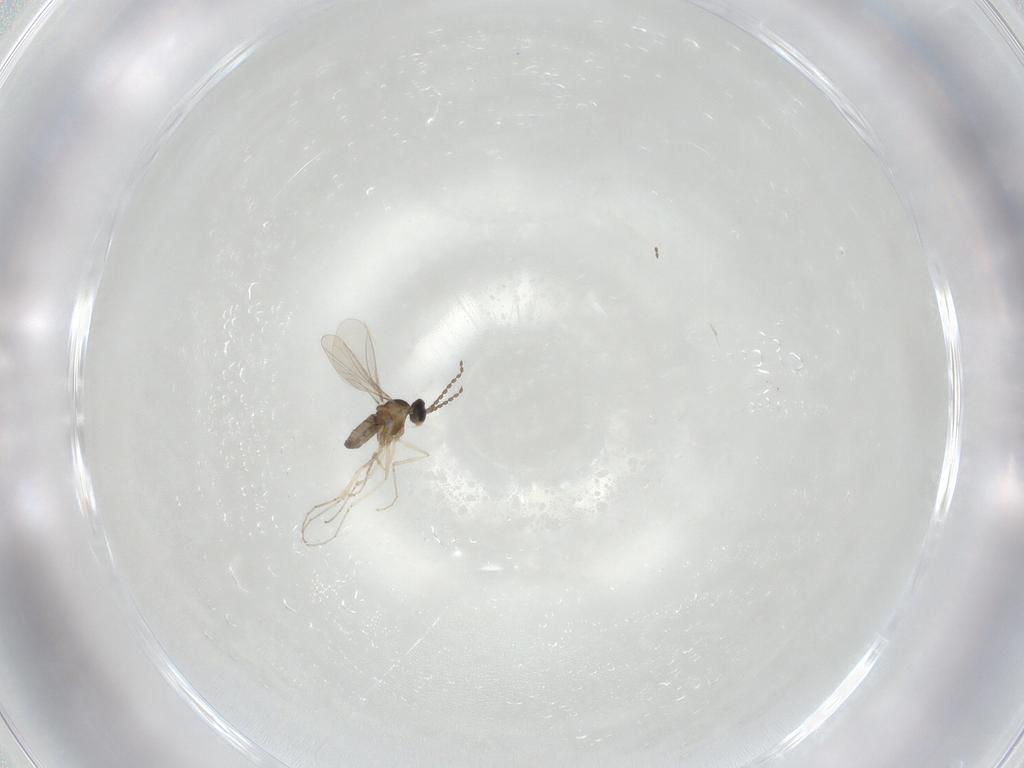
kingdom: Animalia
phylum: Arthropoda
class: Insecta
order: Diptera
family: Cecidomyiidae
